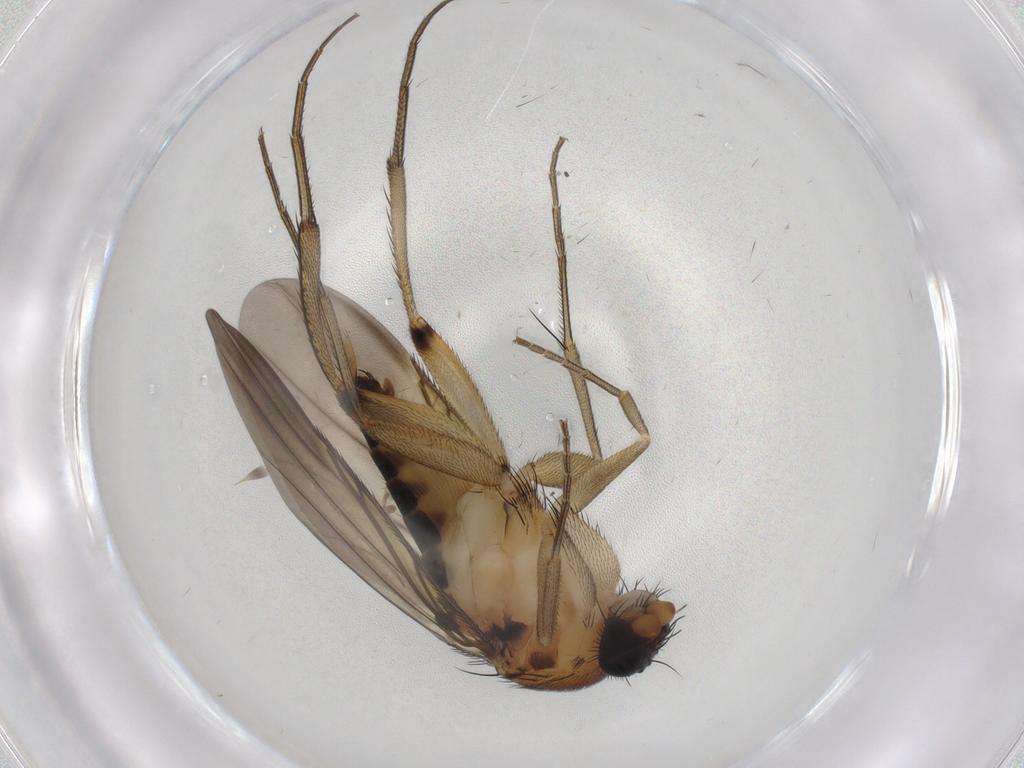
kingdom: Animalia
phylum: Arthropoda
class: Insecta
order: Diptera
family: Phoridae
